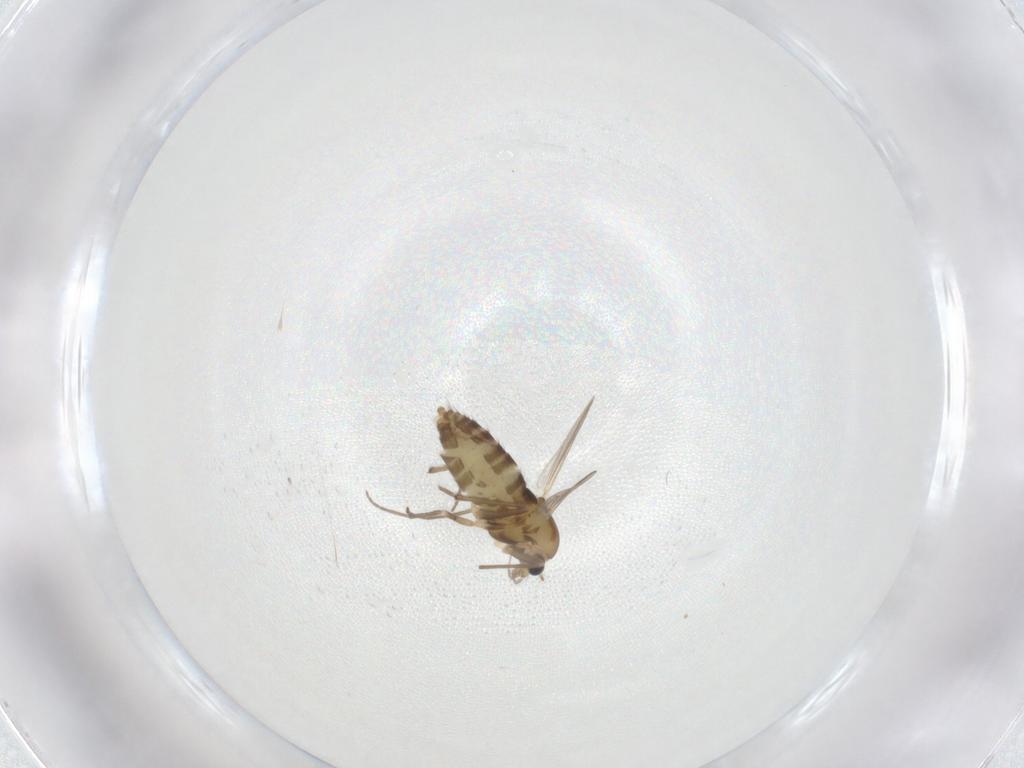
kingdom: Animalia
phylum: Arthropoda
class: Insecta
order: Diptera
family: Chironomidae
